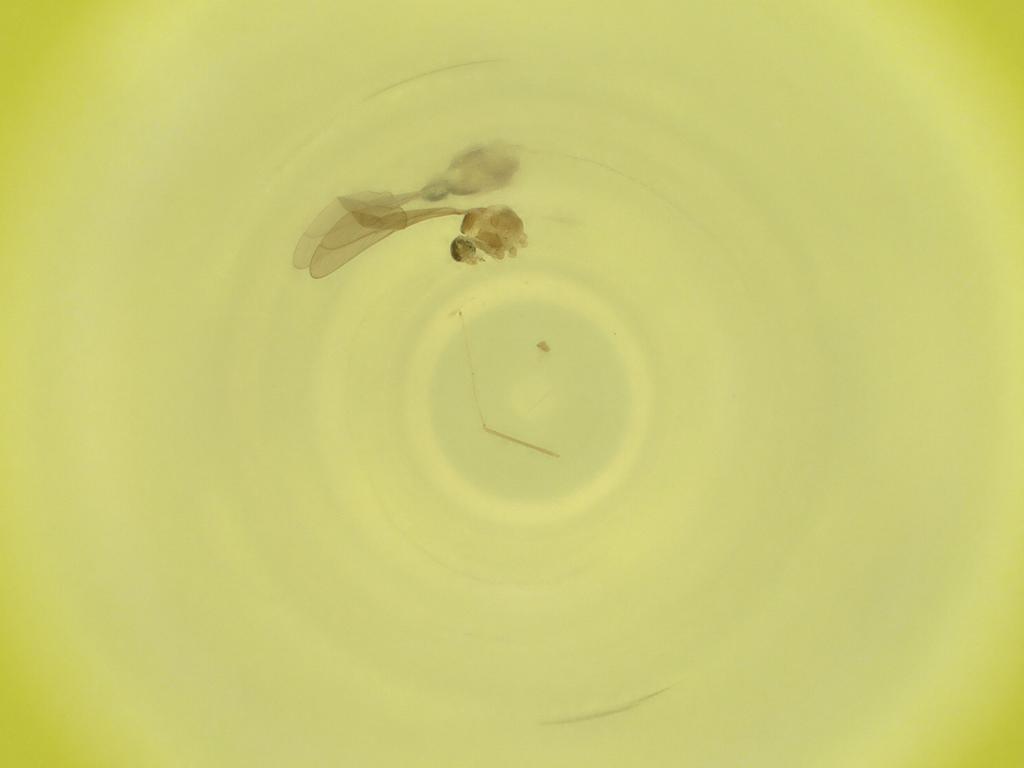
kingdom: Animalia
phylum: Arthropoda
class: Insecta
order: Diptera
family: Cecidomyiidae
